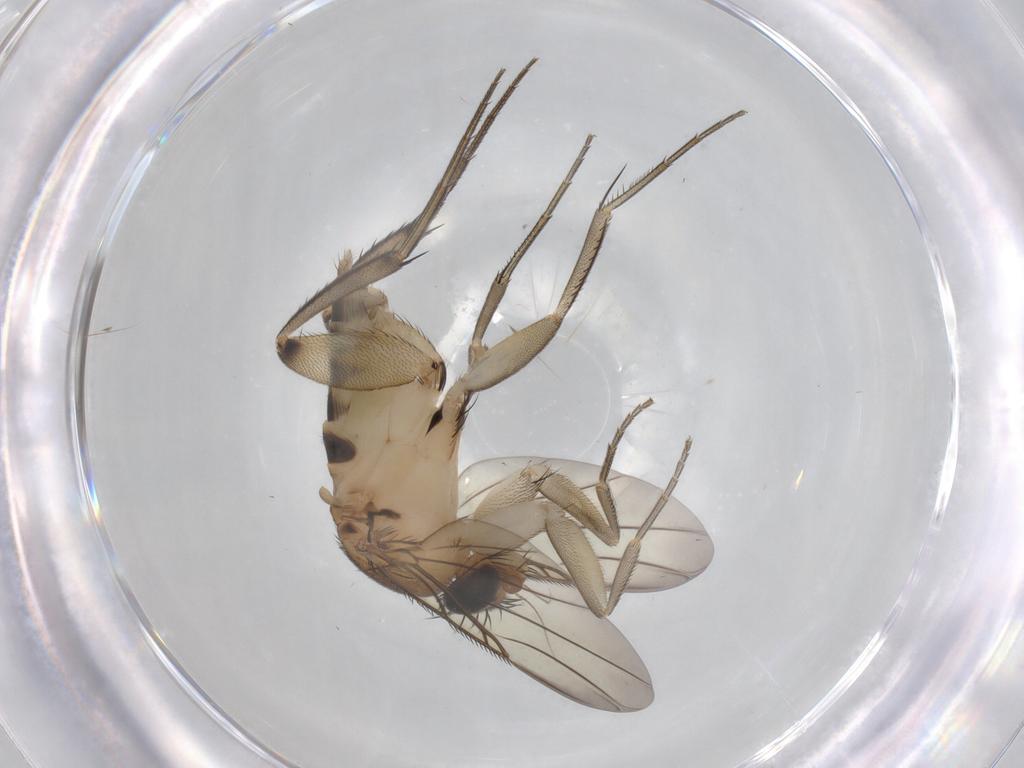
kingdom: Animalia
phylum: Arthropoda
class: Insecta
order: Diptera
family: Phoridae
